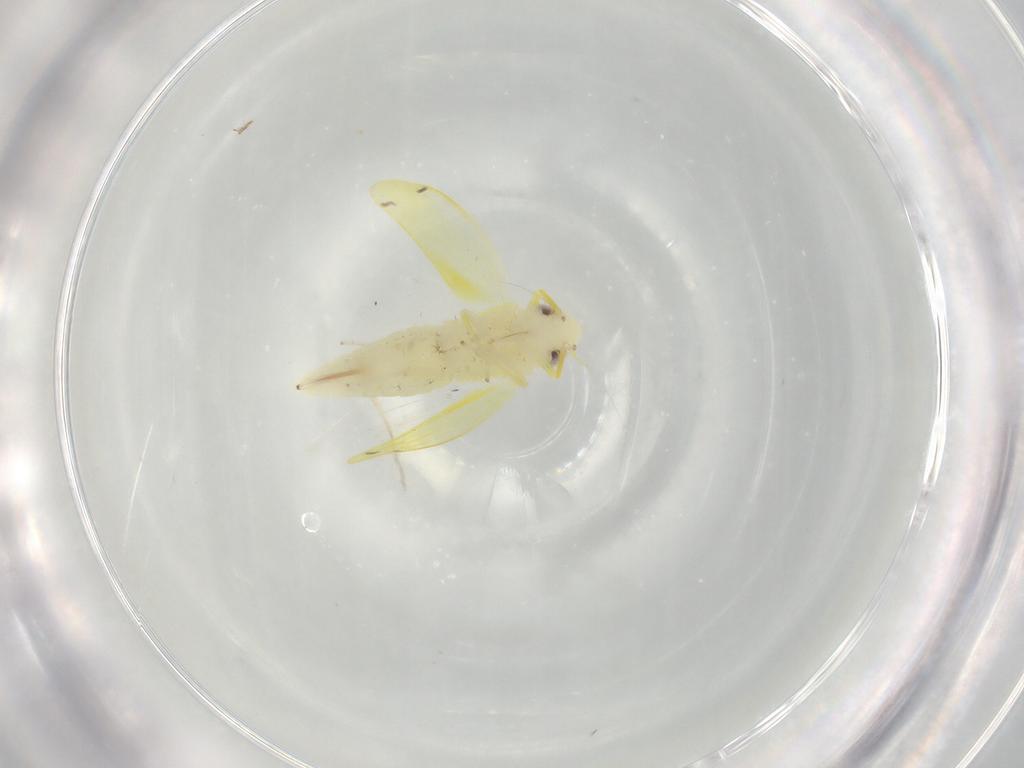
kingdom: Animalia
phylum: Arthropoda
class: Insecta
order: Hemiptera
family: Cicadellidae
